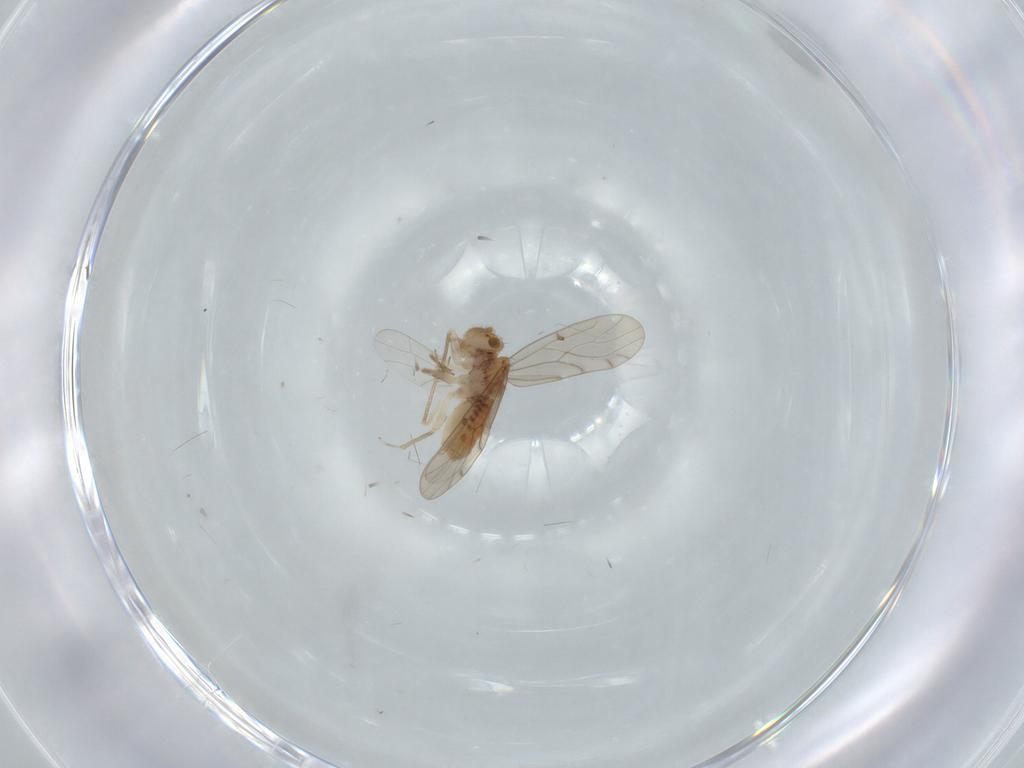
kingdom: Animalia
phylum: Arthropoda
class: Insecta
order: Psocodea
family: Ectopsocidae
